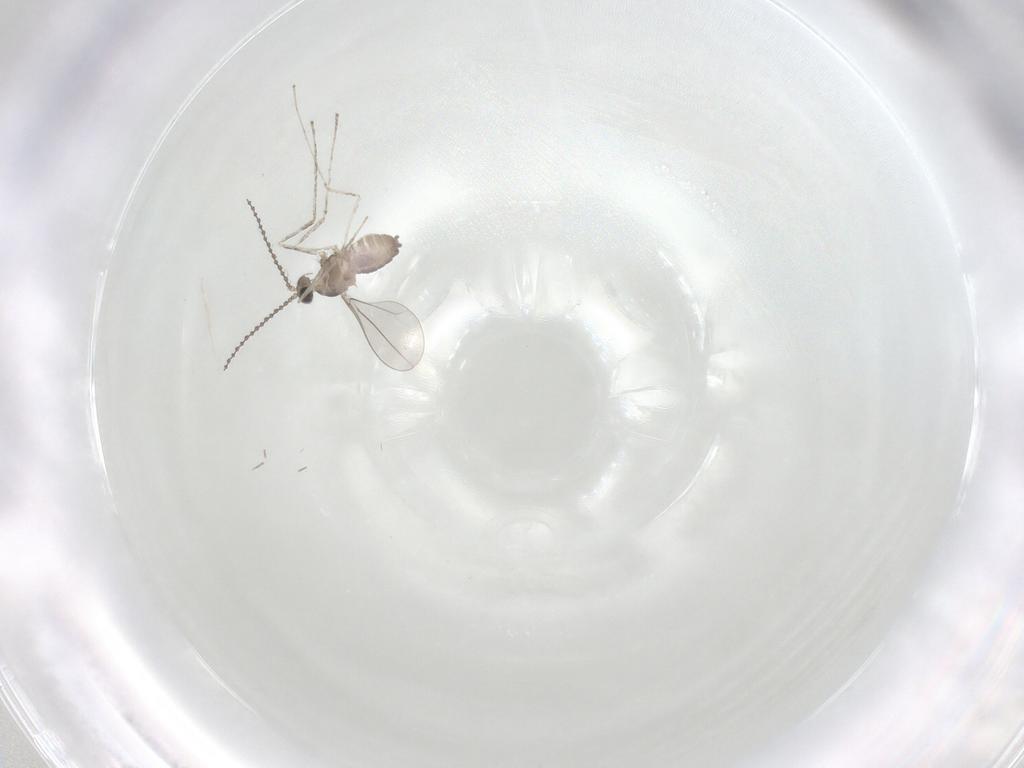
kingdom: Animalia
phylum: Arthropoda
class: Insecta
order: Diptera
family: Cecidomyiidae
